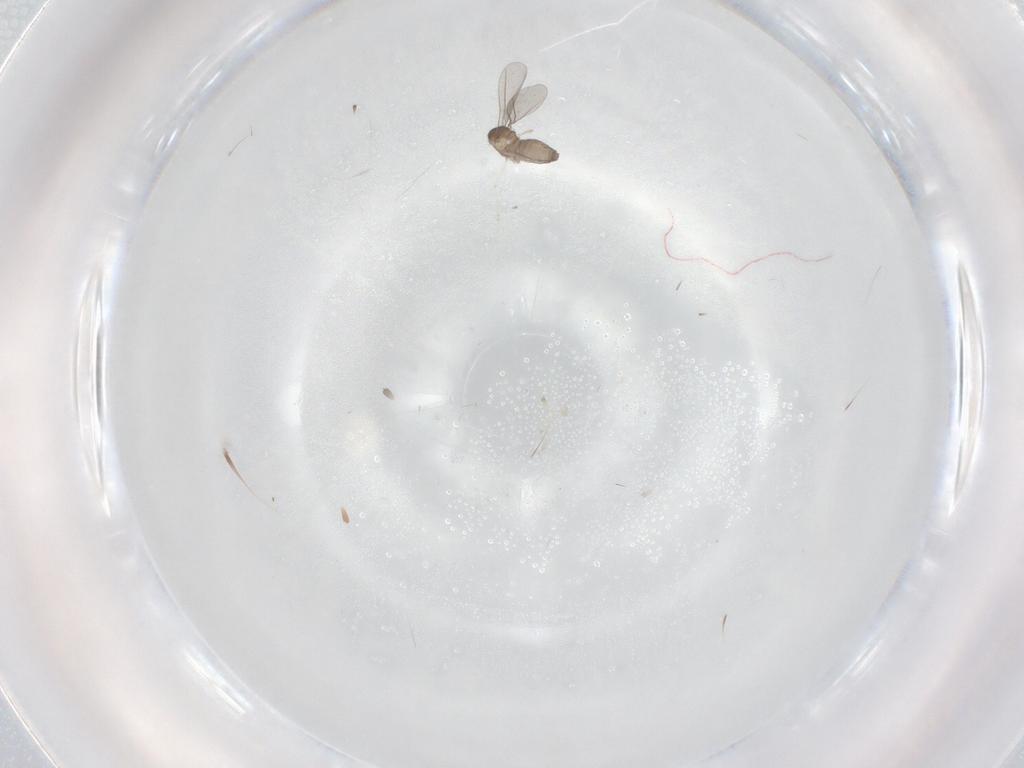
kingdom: Animalia
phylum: Arthropoda
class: Insecta
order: Diptera
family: Cecidomyiidae
